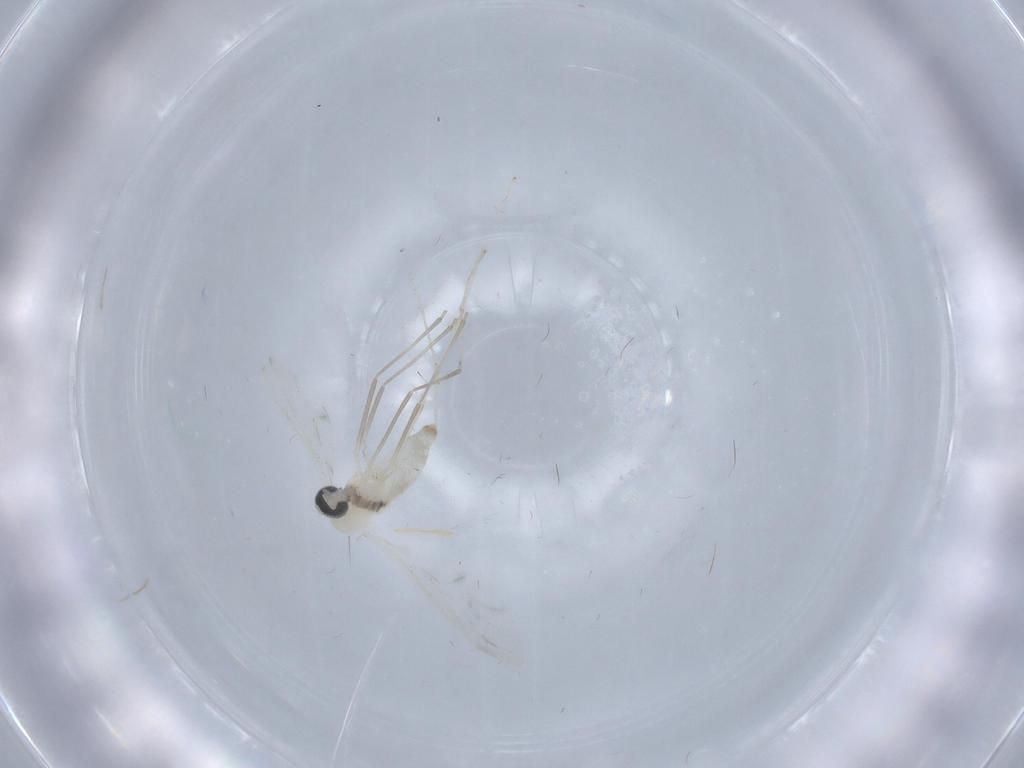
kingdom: Animalia
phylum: Arthropoda
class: Insecta
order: Diptera
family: Cecidomyiidae
